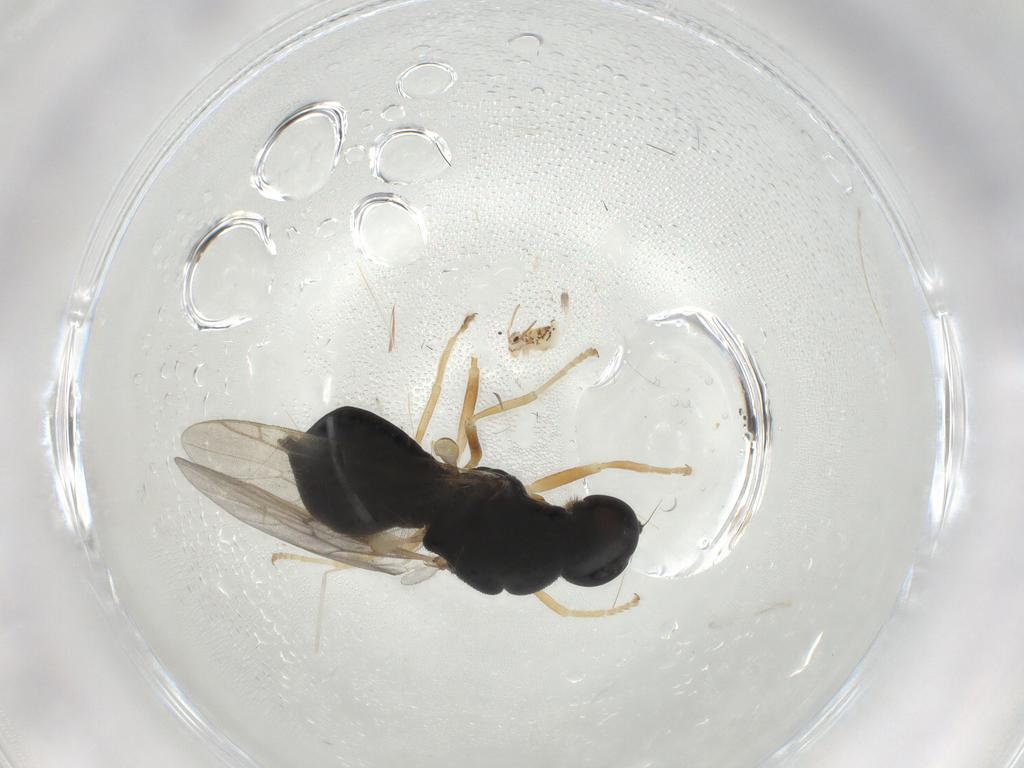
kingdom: Animalia
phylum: Arthropoda
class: Insecta
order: Diptera
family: Stratiomyidae
